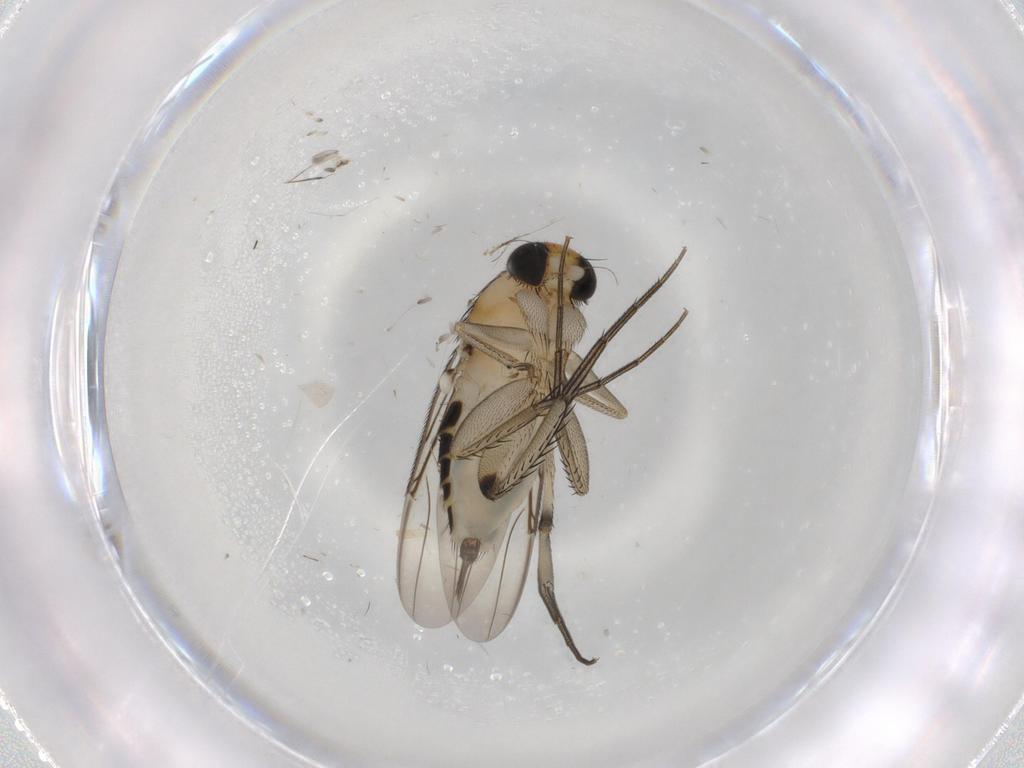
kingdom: Animalia
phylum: Arthropoda
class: Insecta
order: Diptera
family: Phoridae
